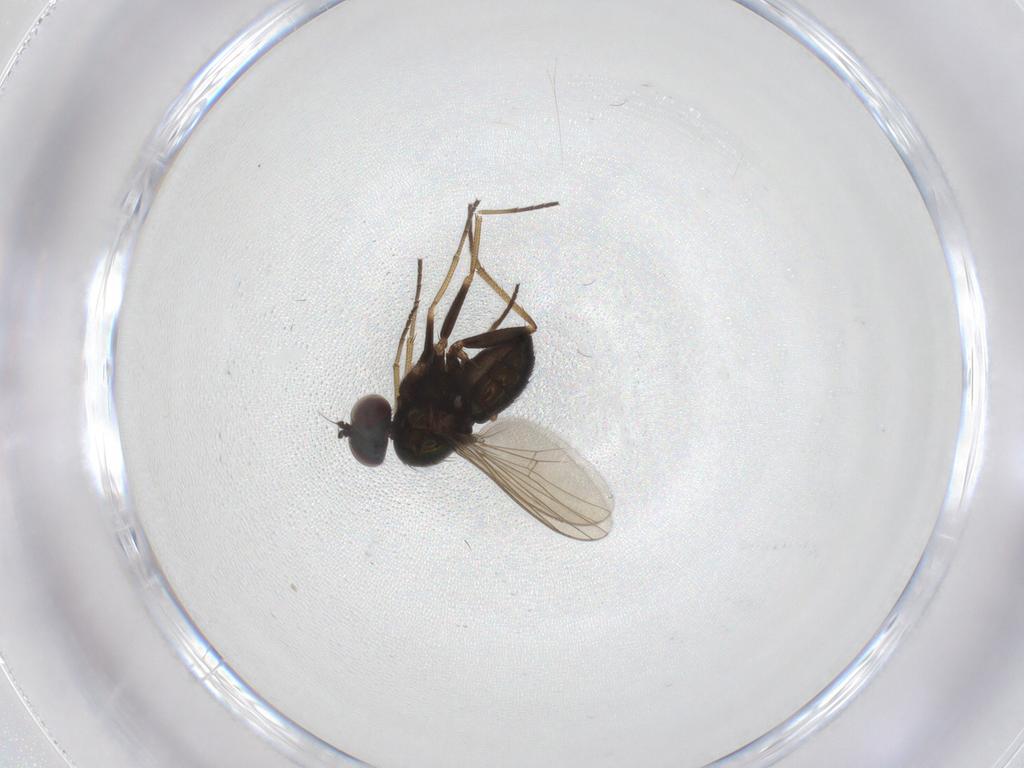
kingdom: Animalia
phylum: Arthropoda
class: Insecta
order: Diptera
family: Dolichopodidae
